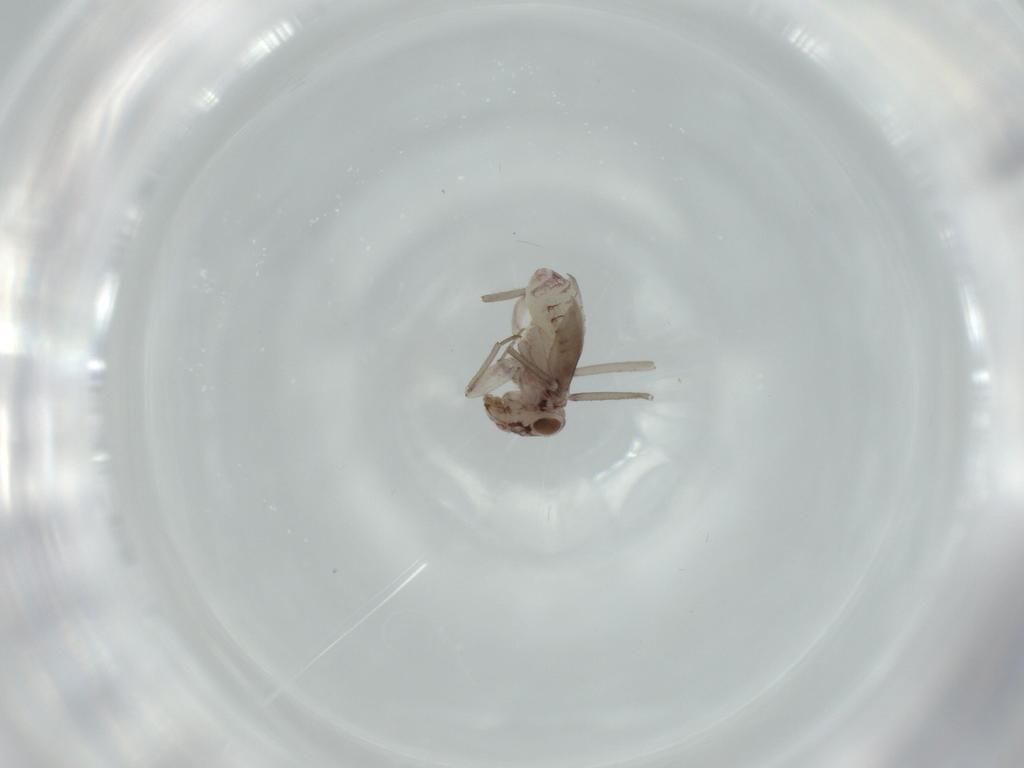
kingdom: Animalia
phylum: Arthropoda
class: Insecta
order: Psocodea
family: Lepidopsocidae
